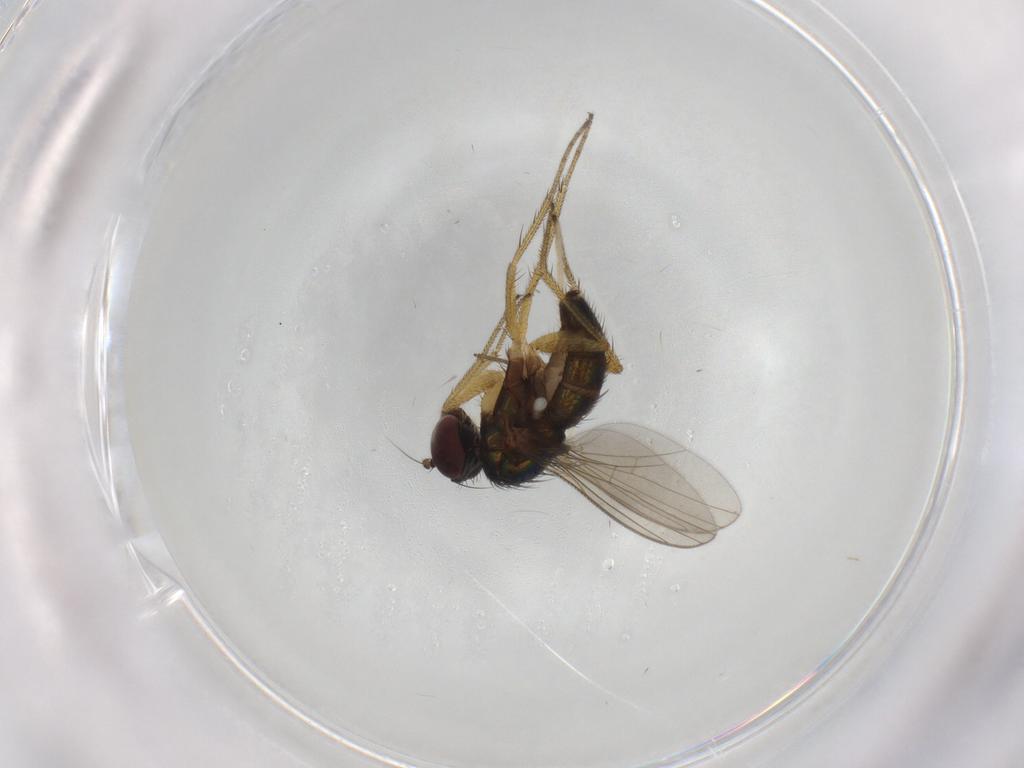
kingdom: Animalia
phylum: Arthropoda
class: Insecta
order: Diptera
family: Chironomidae
